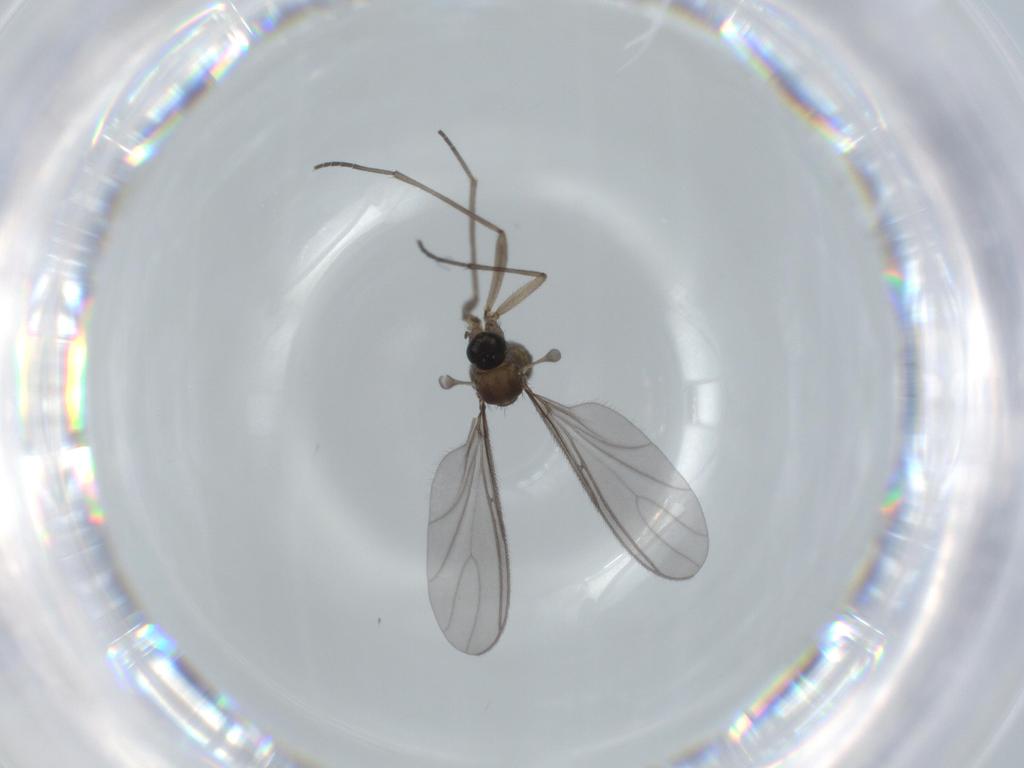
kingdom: Animalia
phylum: Arthropoda
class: Insecta
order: Diptera
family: Sciaridae
